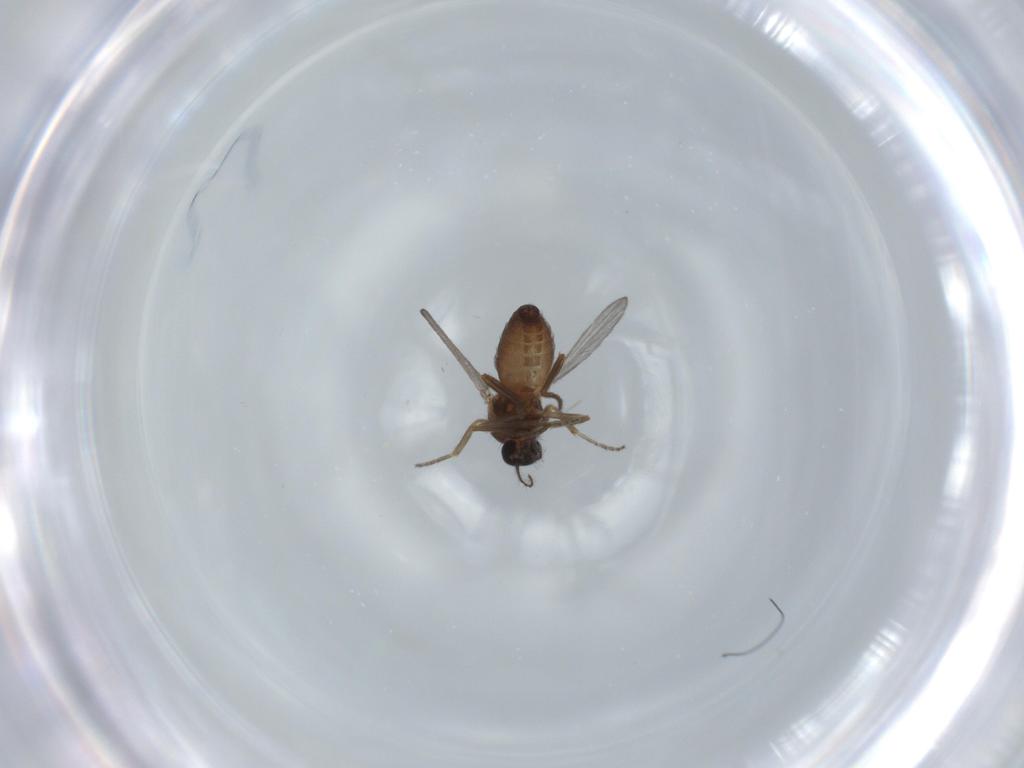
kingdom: Animalia
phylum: Arthropoda
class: Insecta
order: Diptera
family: Ceratopogonidae
